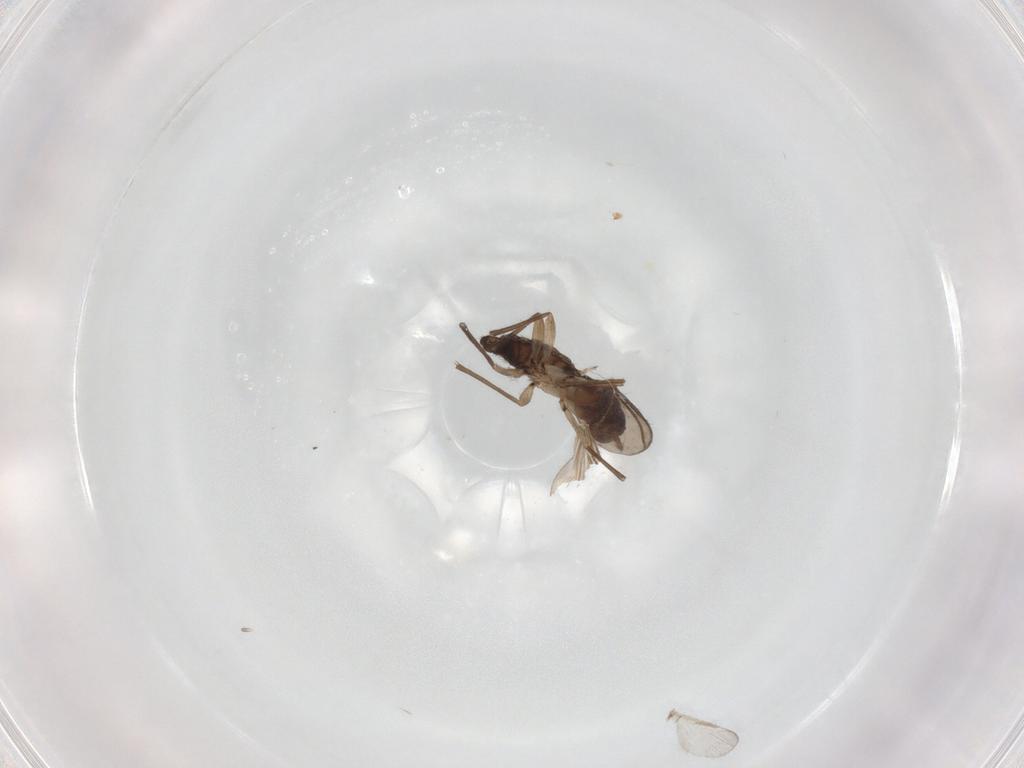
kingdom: Animalia
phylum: Arthropoda
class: Insecta
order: Diptera
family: Sciaridae
